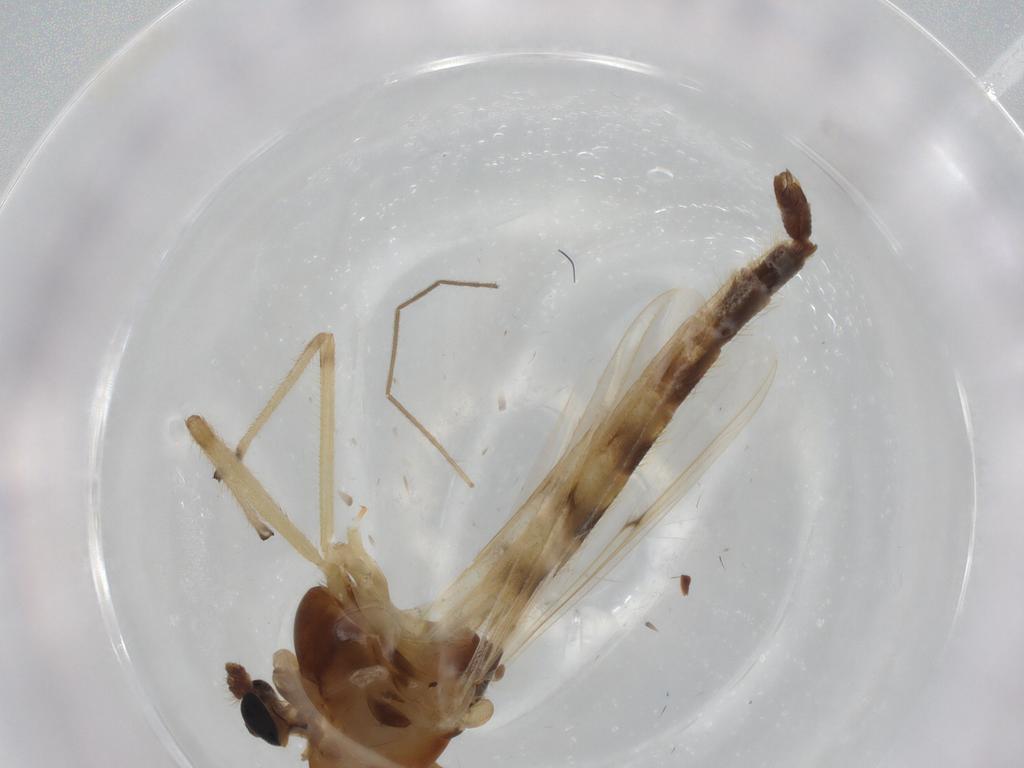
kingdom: Animalia
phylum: Arthropoda
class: Insecta
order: Diptera
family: Chironomidae
